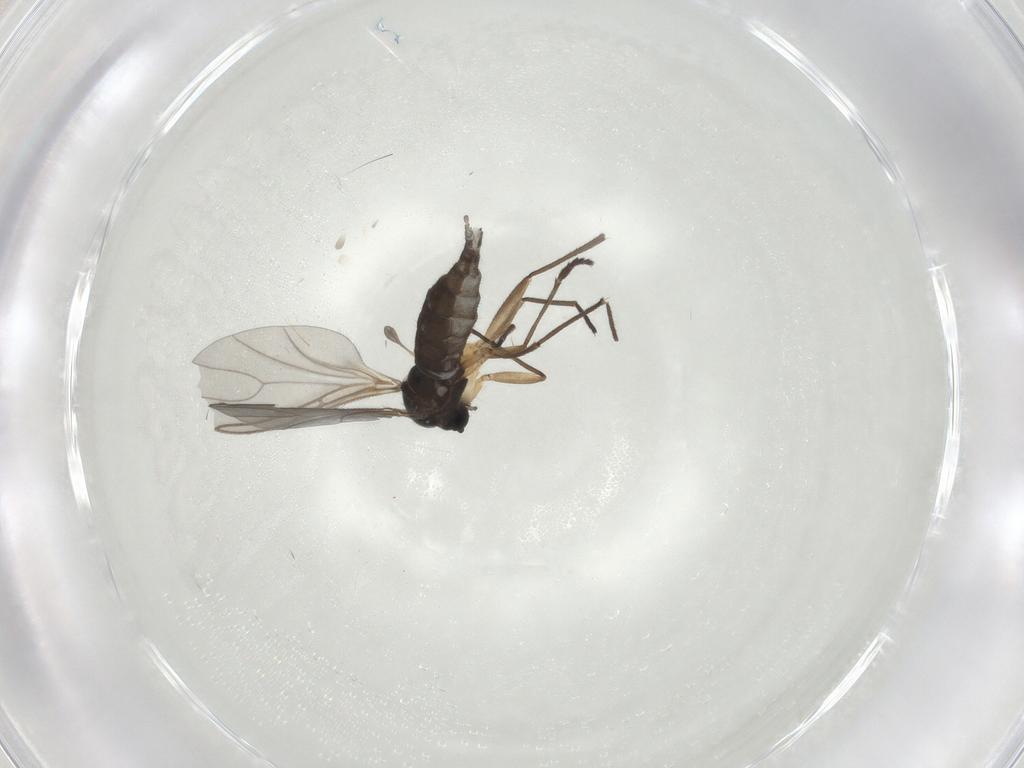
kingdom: Animalia
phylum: Arthropoda
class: Insecta
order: Diptera
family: Sciaridae
